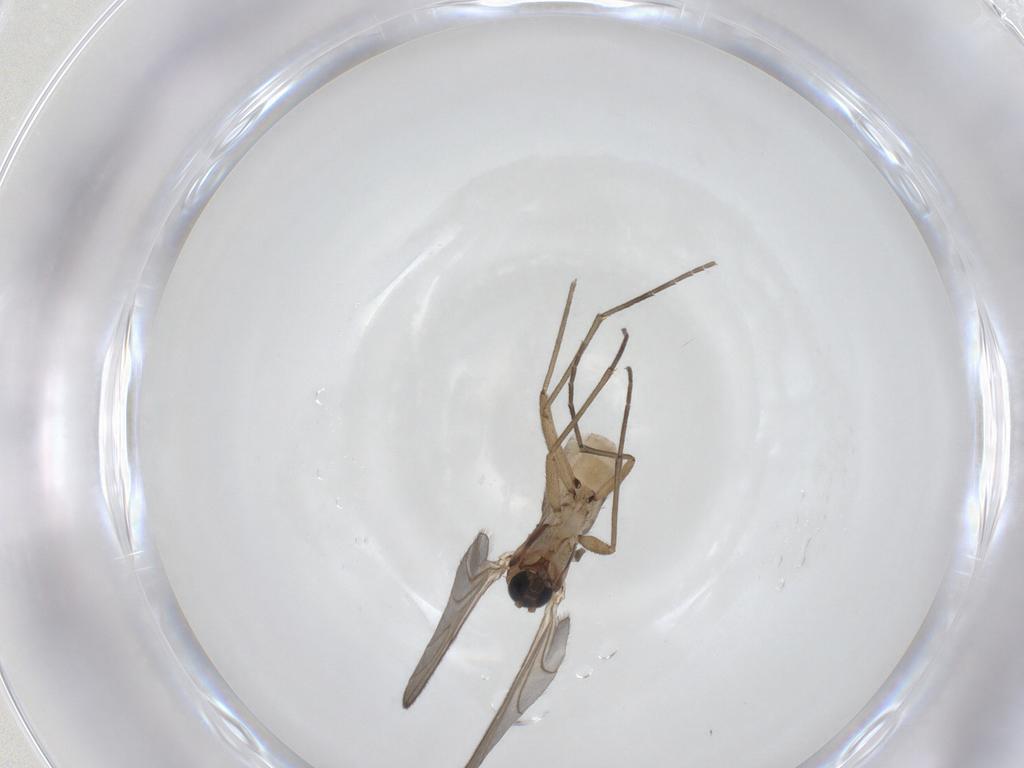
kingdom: Animalia
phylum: Arthropoda
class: Insecta
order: Diptera
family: Sciaridae
